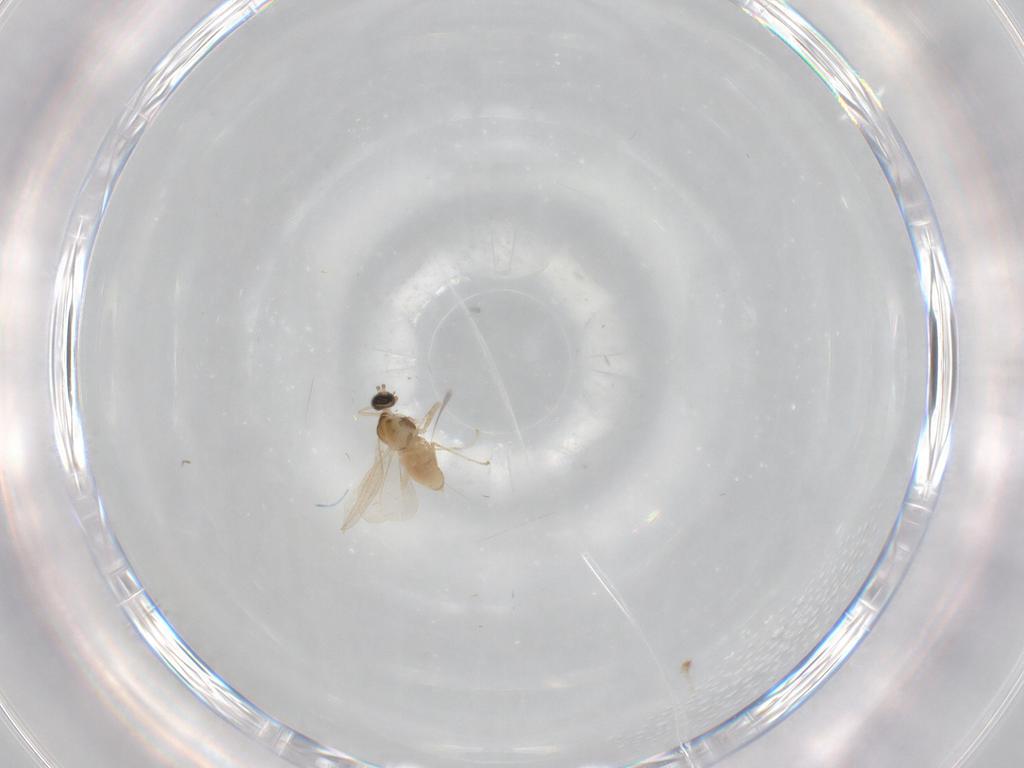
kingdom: Animalia
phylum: Arthropoda
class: Insecta
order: Diptera
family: Cecidomyiidae
